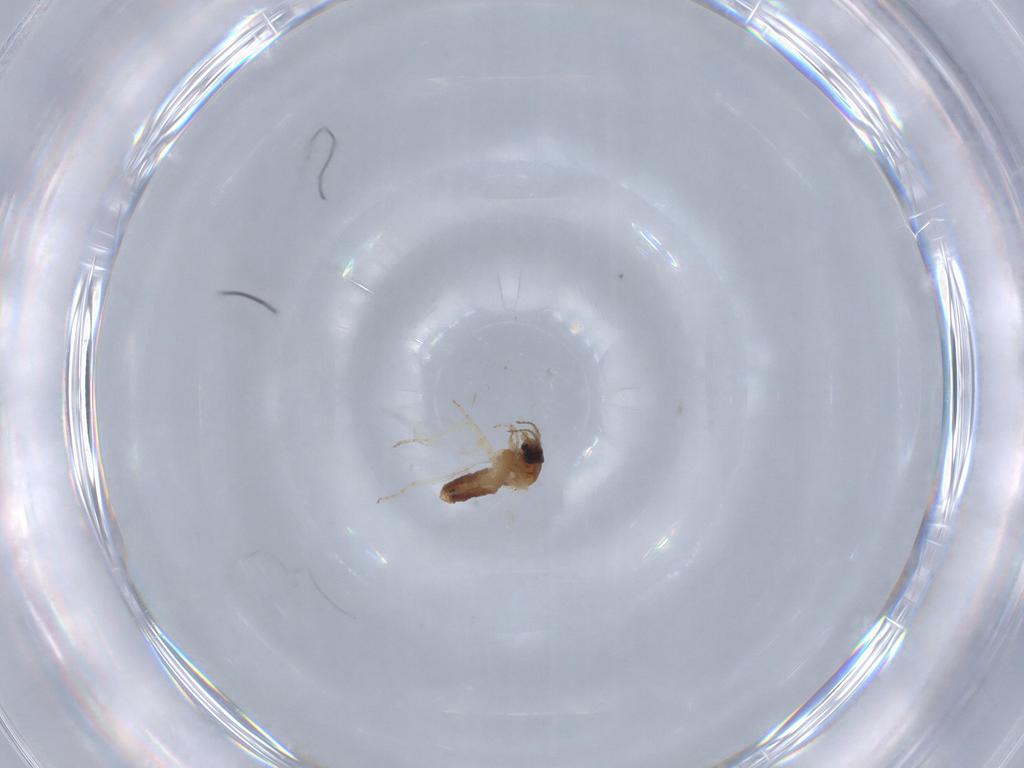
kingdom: Animalia
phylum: Arthropoda
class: Insecta
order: Diptera
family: Ceratopogonidae
